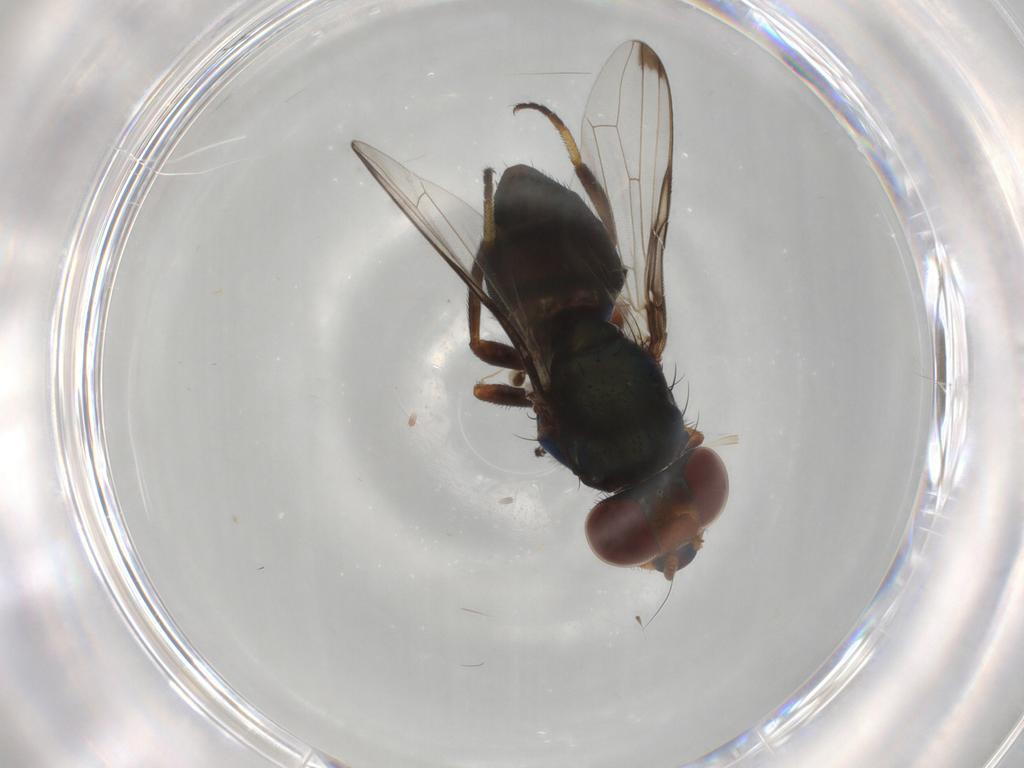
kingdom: Animalia
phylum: Arthropoda
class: Insecta
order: Diptera
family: Ulidiidae
